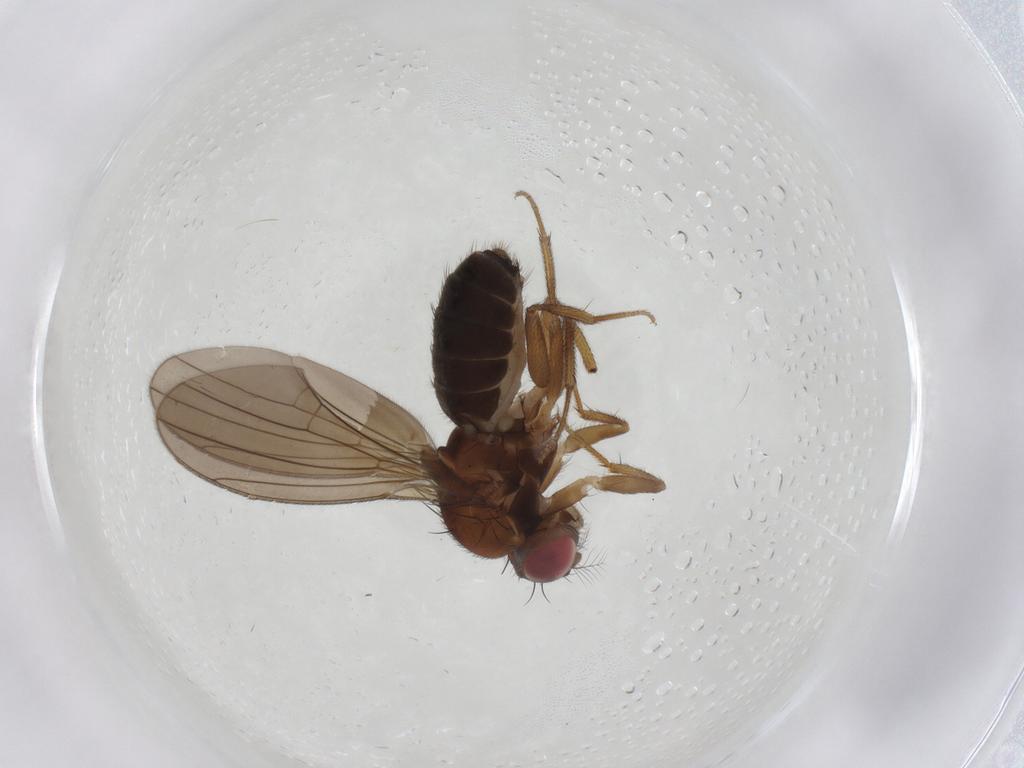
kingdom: Animalia
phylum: Arthropoda
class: Insecta
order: Diptera
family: Drosophilidae
